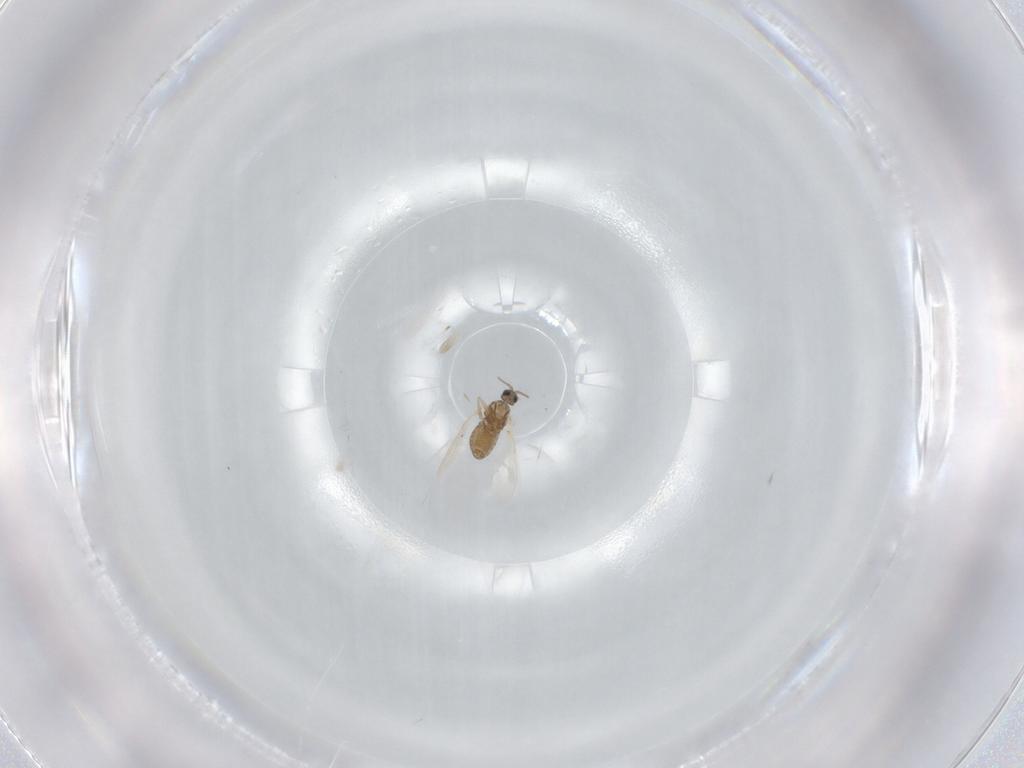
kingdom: Animalia
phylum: Arthropoda
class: Insecta
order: Diptera
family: Cecidomyiidae
